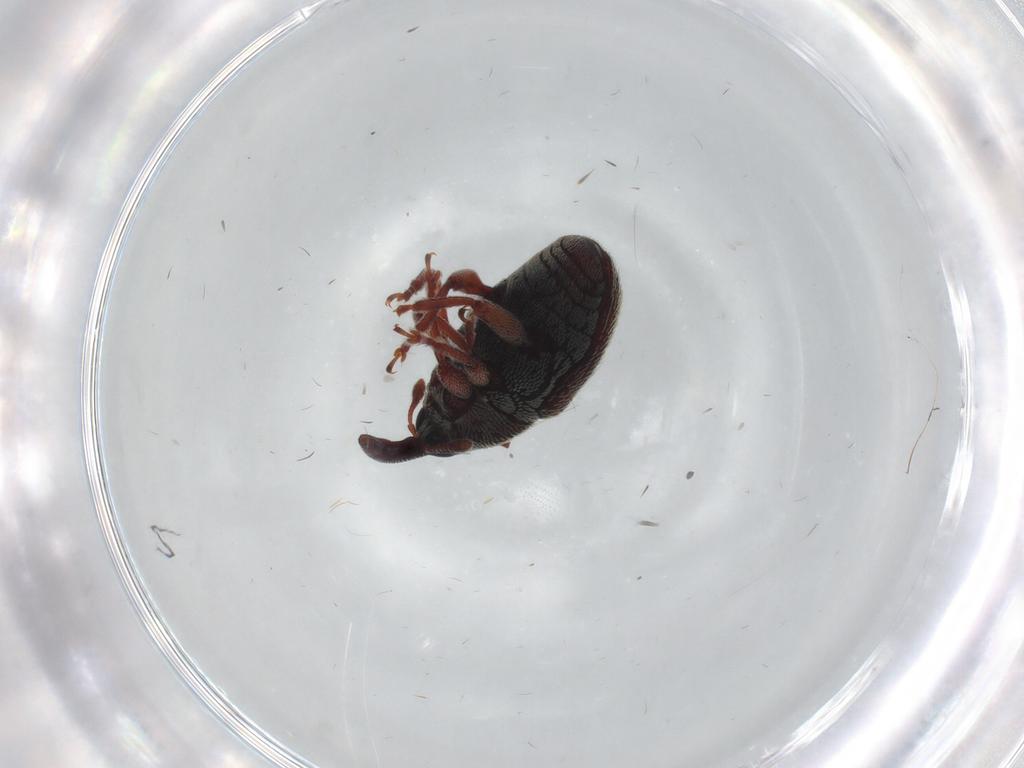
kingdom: Animalia
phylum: Arthropoda
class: Insecta
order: Coleoptera
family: Curculionidae
